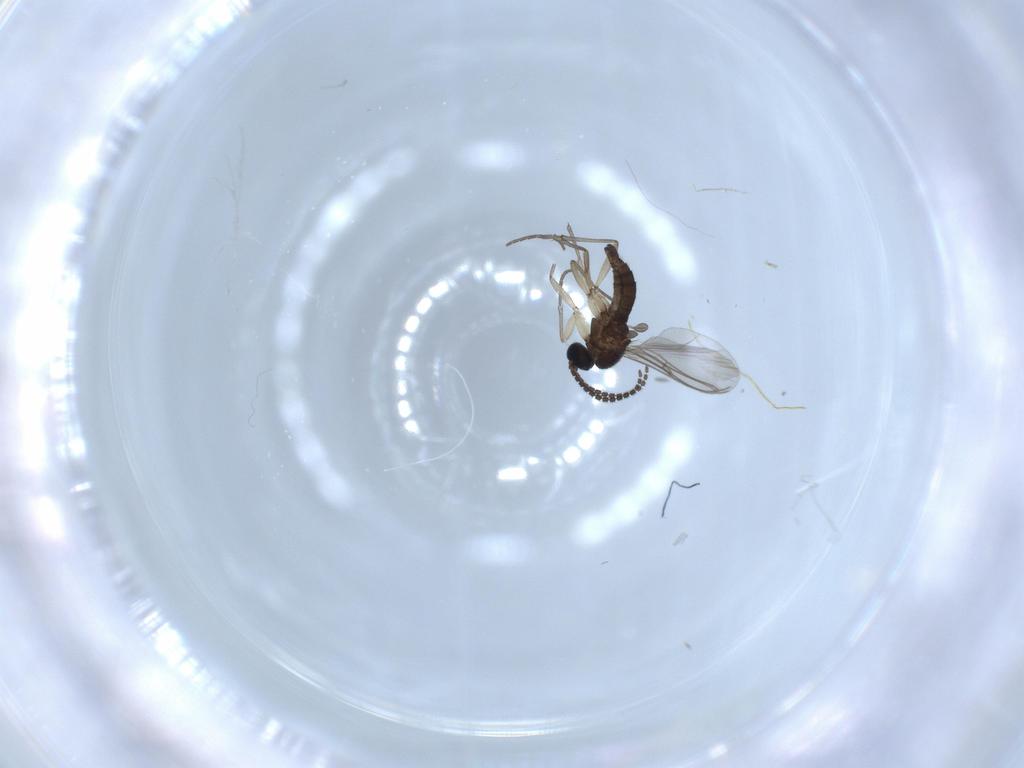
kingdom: Animalia
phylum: Arthropoda
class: Insecta
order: Diptera
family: Sciaridae
